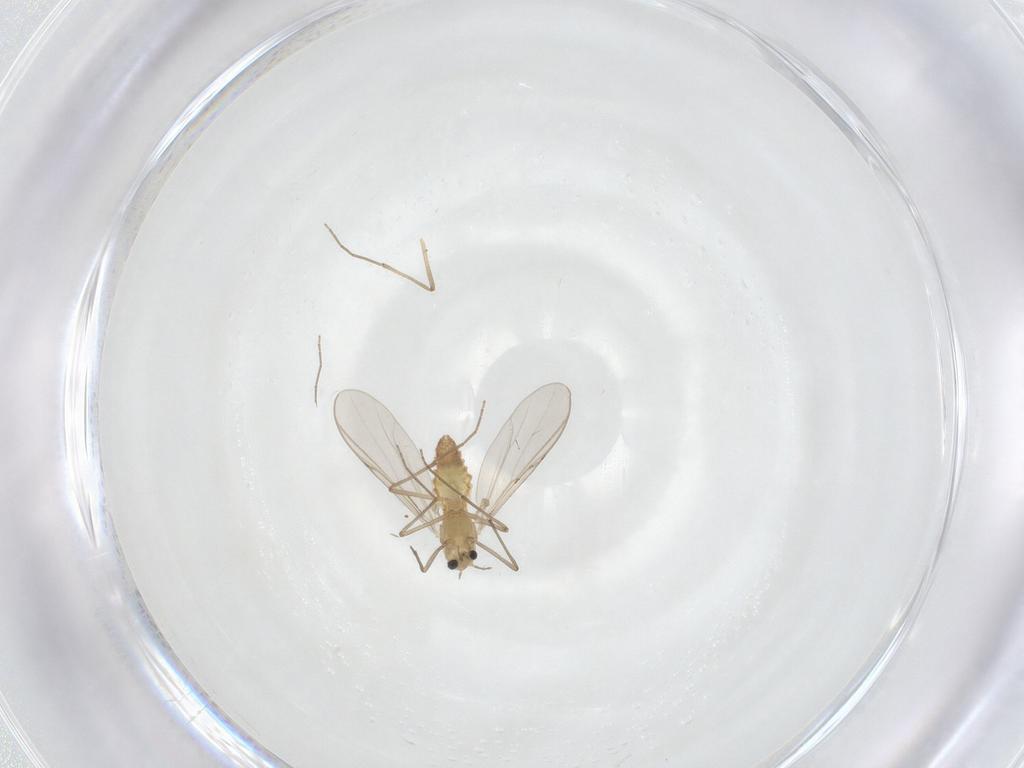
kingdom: Animalia
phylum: Arthropoda
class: Insecta
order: Diptera
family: Chironomidae
